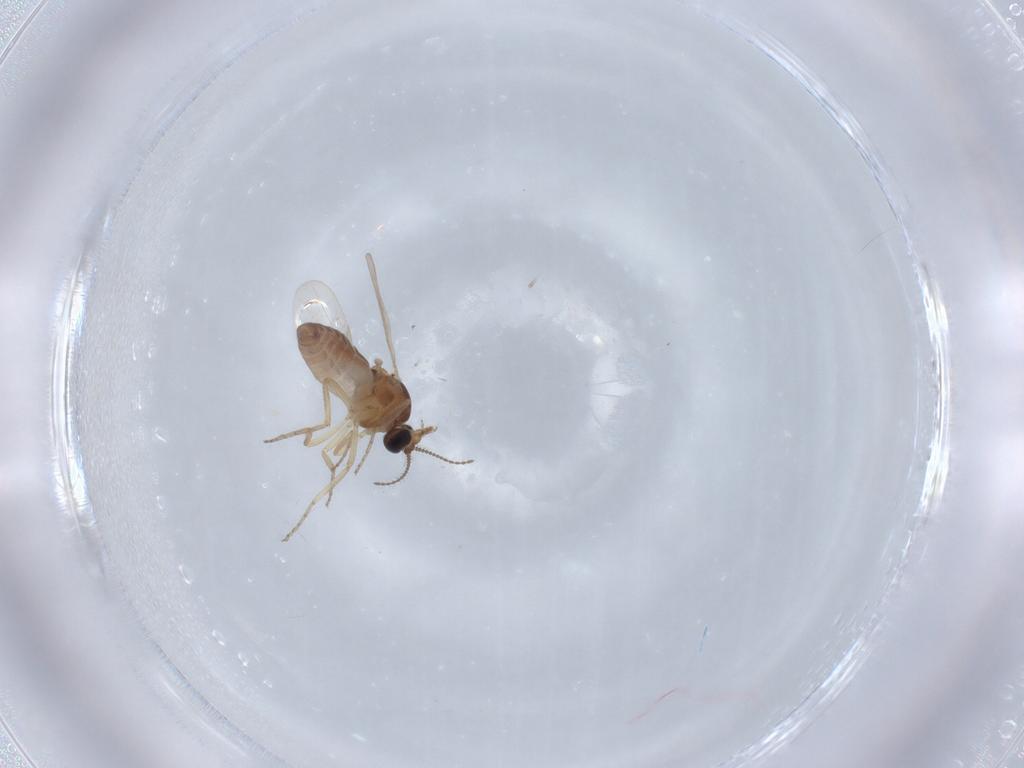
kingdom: Animalia
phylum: Arthropoda
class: Insecta
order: Diptera
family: Ceratopogonidae
